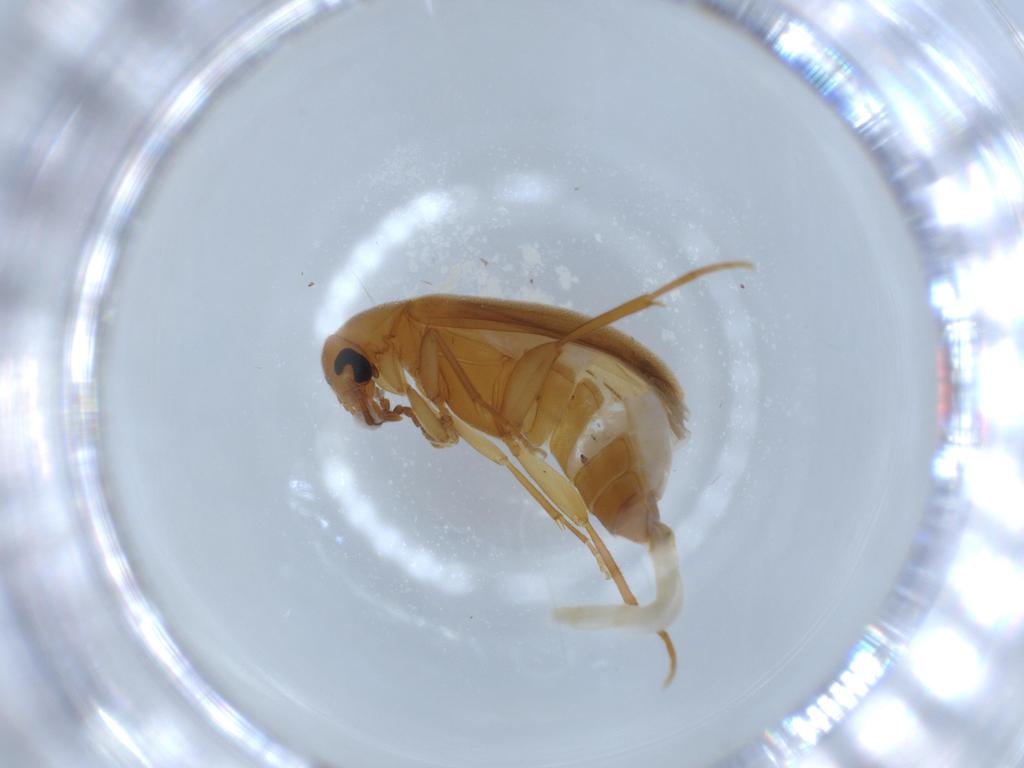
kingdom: Animalia
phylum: Arthropoda
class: Insecta
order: Coleoptera
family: Scraptiidae
